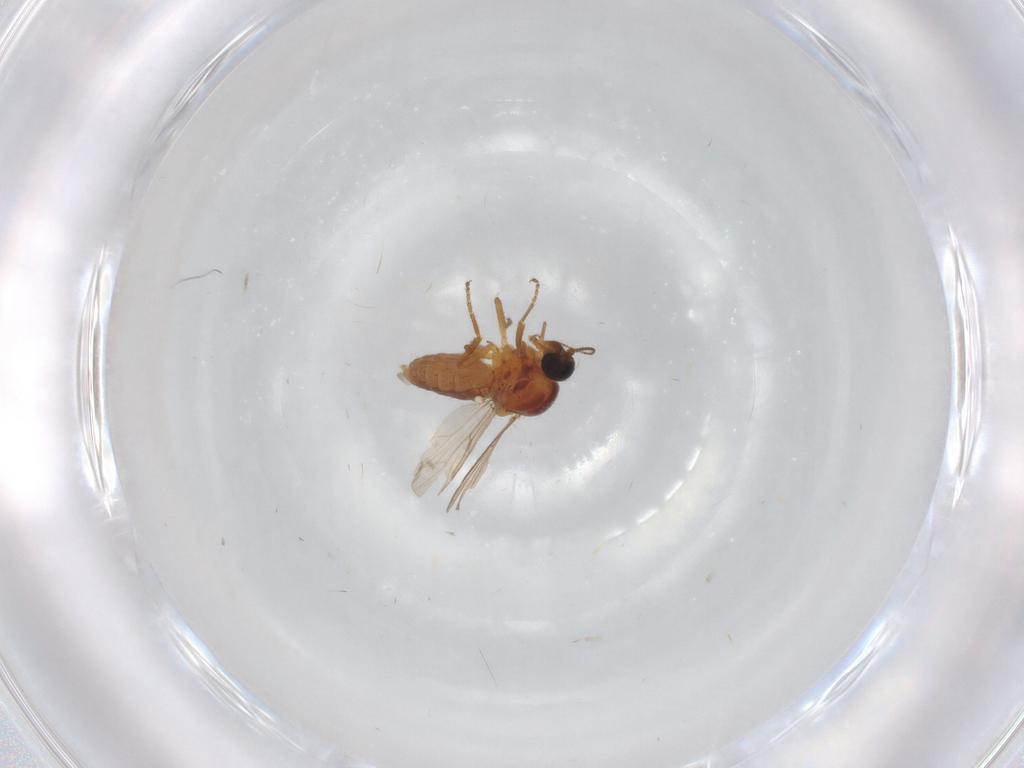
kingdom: Animalia
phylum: Arthropoda
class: Insecta
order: Diptera
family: Ceratopogonidae
